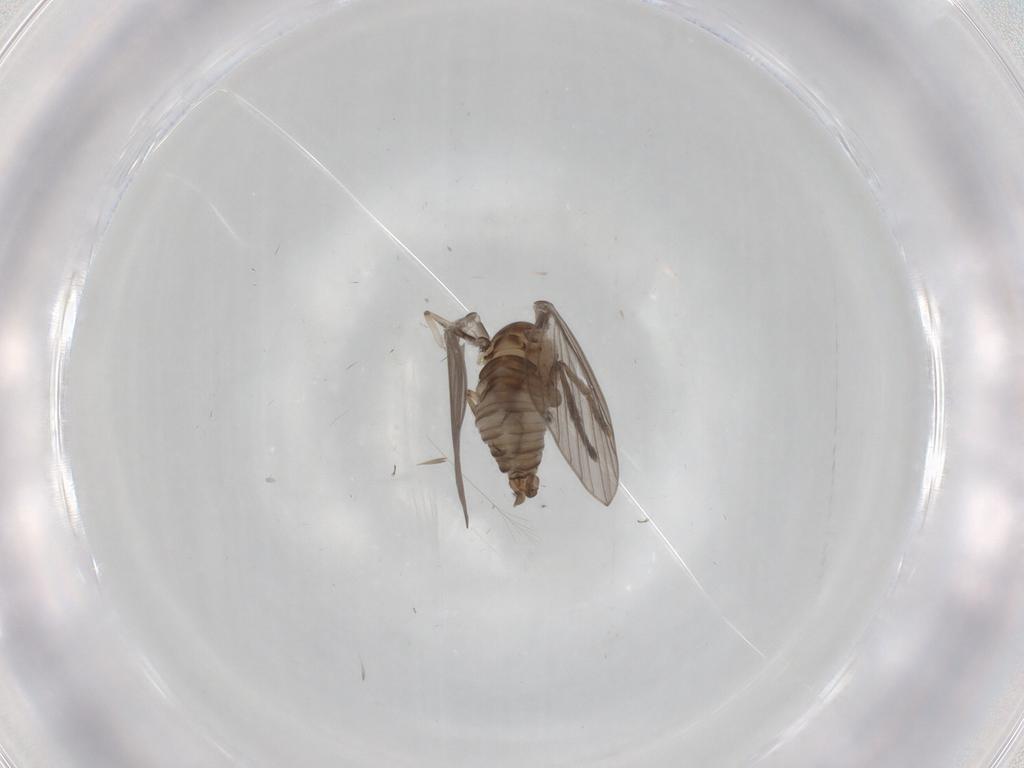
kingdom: Animalia
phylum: Arthropoda
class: Insecta
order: Diptera
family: Psychodidae
